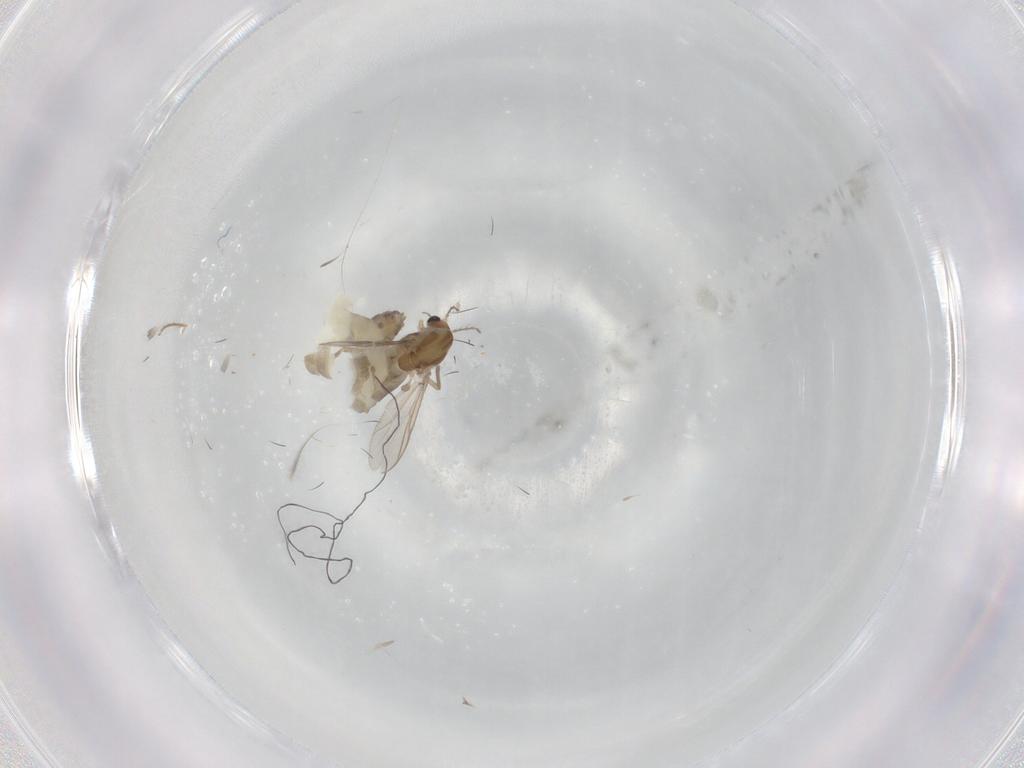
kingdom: Animalia
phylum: Arthropoda
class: Insecta
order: Diptera
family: Chironomidae
